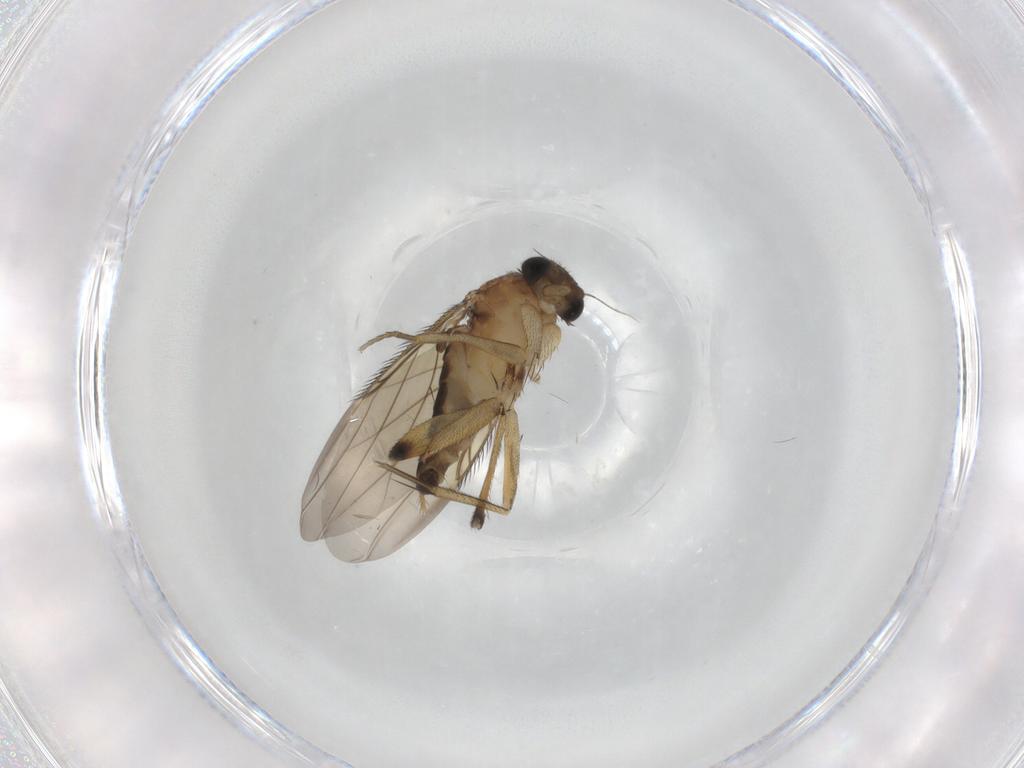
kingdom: Animalia
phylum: Arthropoda
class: Insecta
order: Diptera
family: Phoridae
